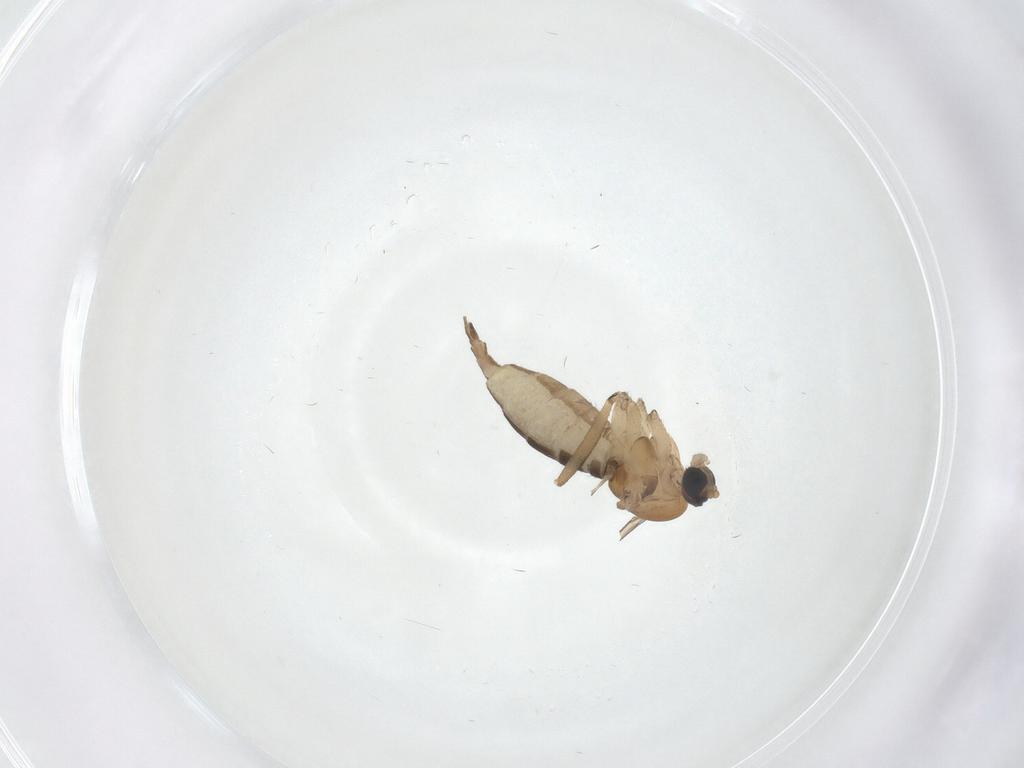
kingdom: Animalia
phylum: Arthropoda
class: Insecta
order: Diptera
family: Sciaridae
